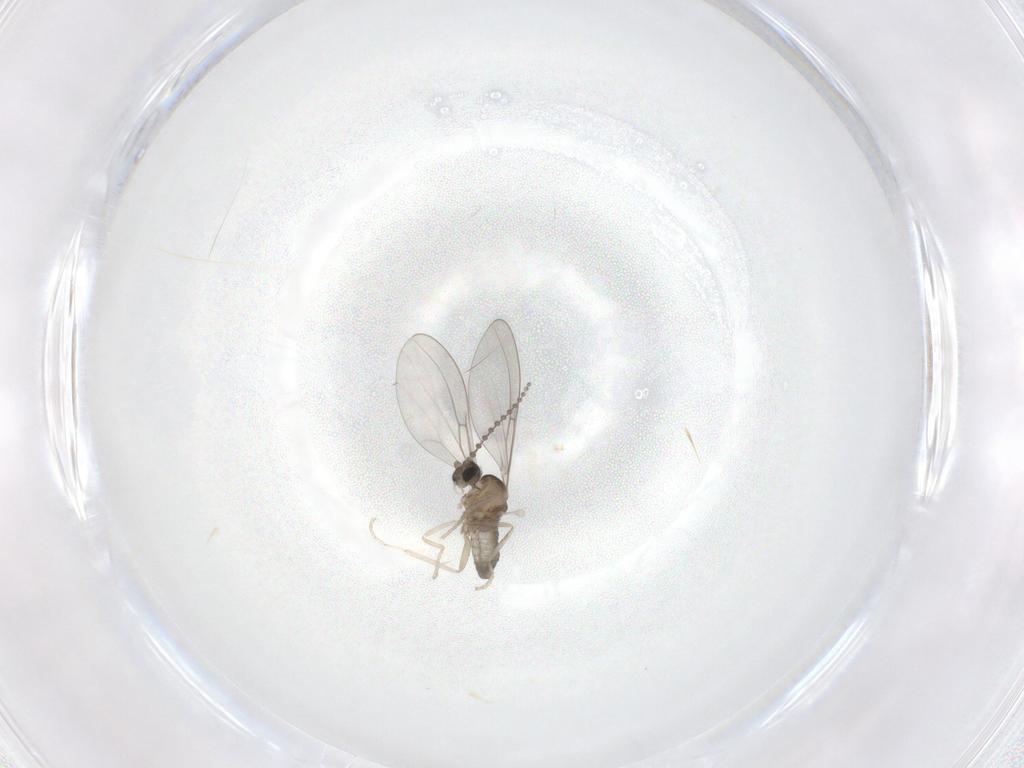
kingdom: Animalia
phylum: Arthropoda
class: Insecta
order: Diptera
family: Cecidomyiidae
